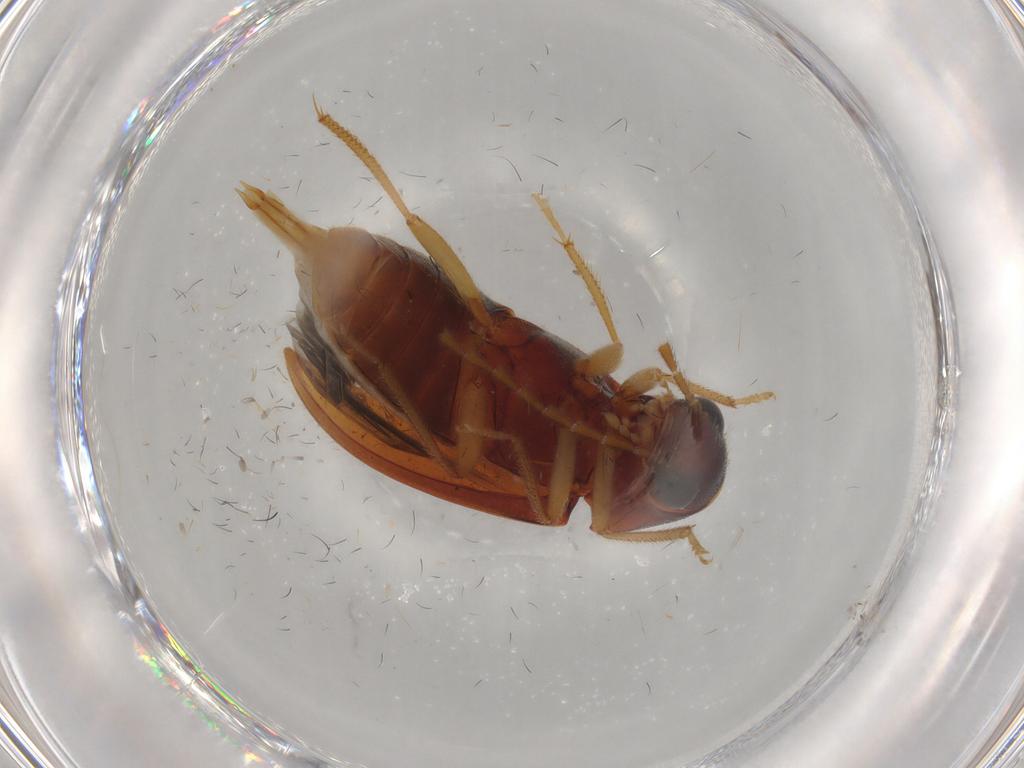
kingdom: Animalia
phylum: Arthropoda
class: Insecta
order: Coleoptera
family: Ptilodactylidae
